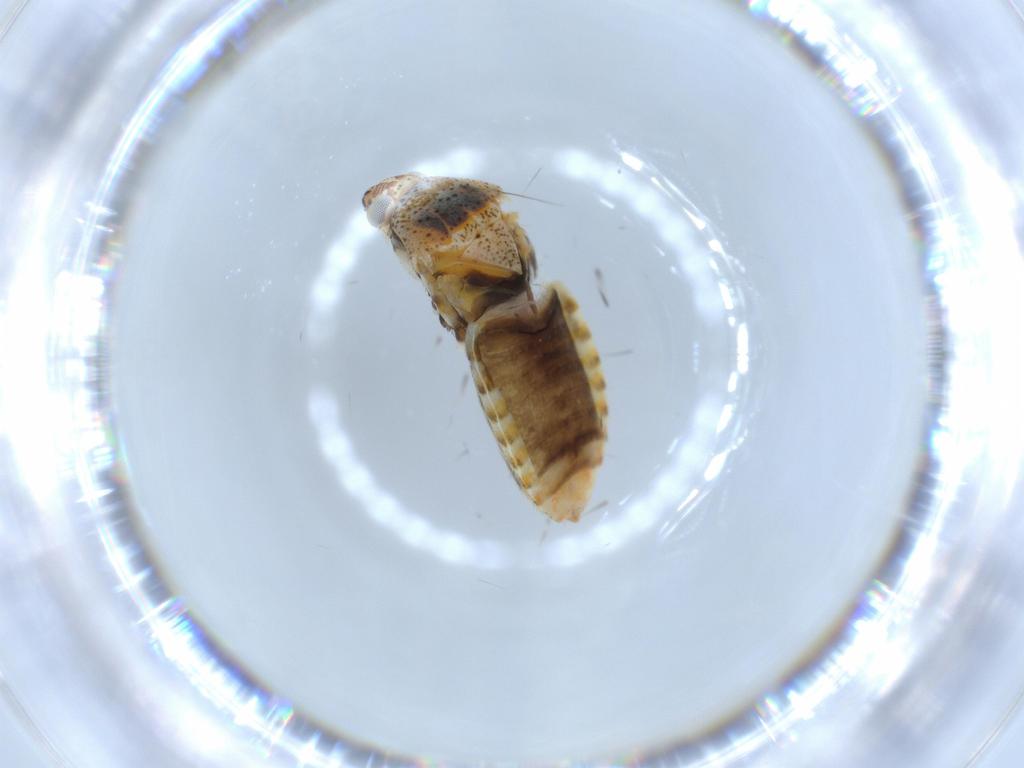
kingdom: Animalia
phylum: Arthropoda
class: Insecta
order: Hemiptera
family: Miridae
